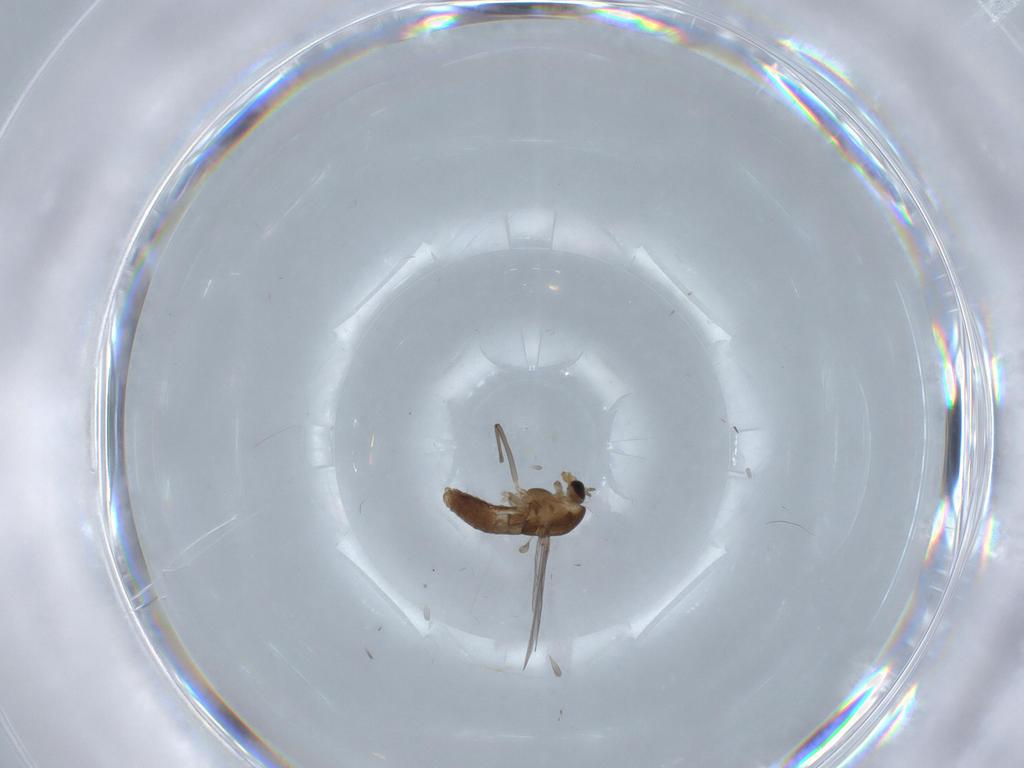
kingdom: Animalia
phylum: Arthropoda
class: Insecta
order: Diptera
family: Chironomidae
